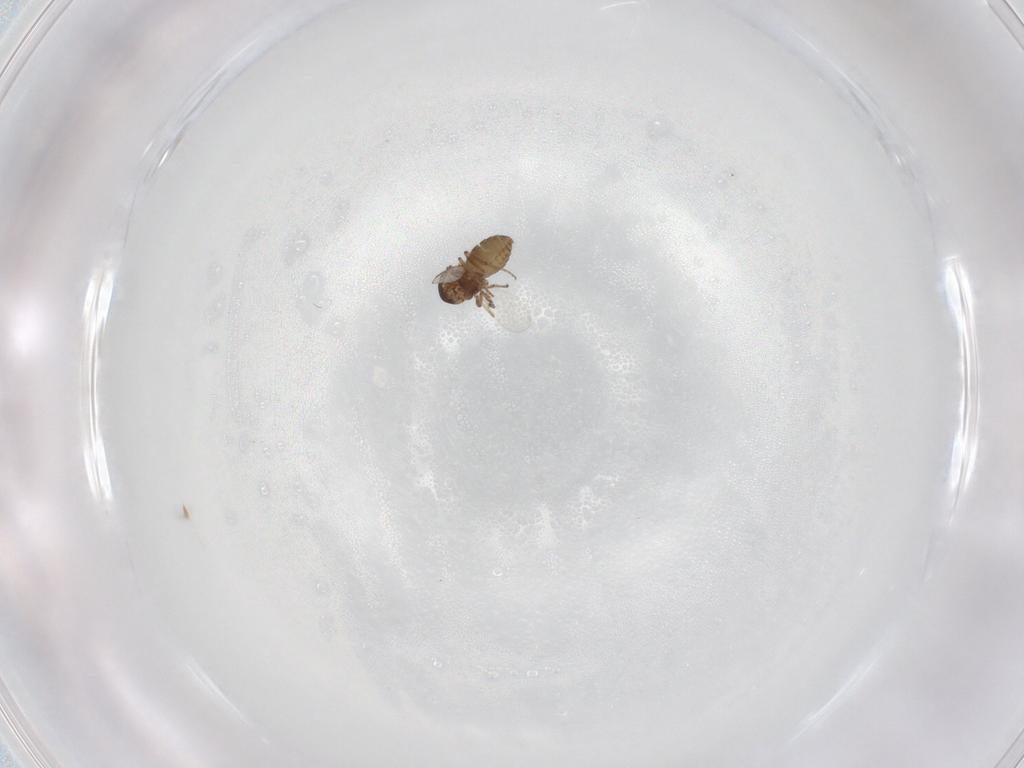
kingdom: Animalia
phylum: Arthropoda
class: Insecta
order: Diptera
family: Ceratopogonidae
